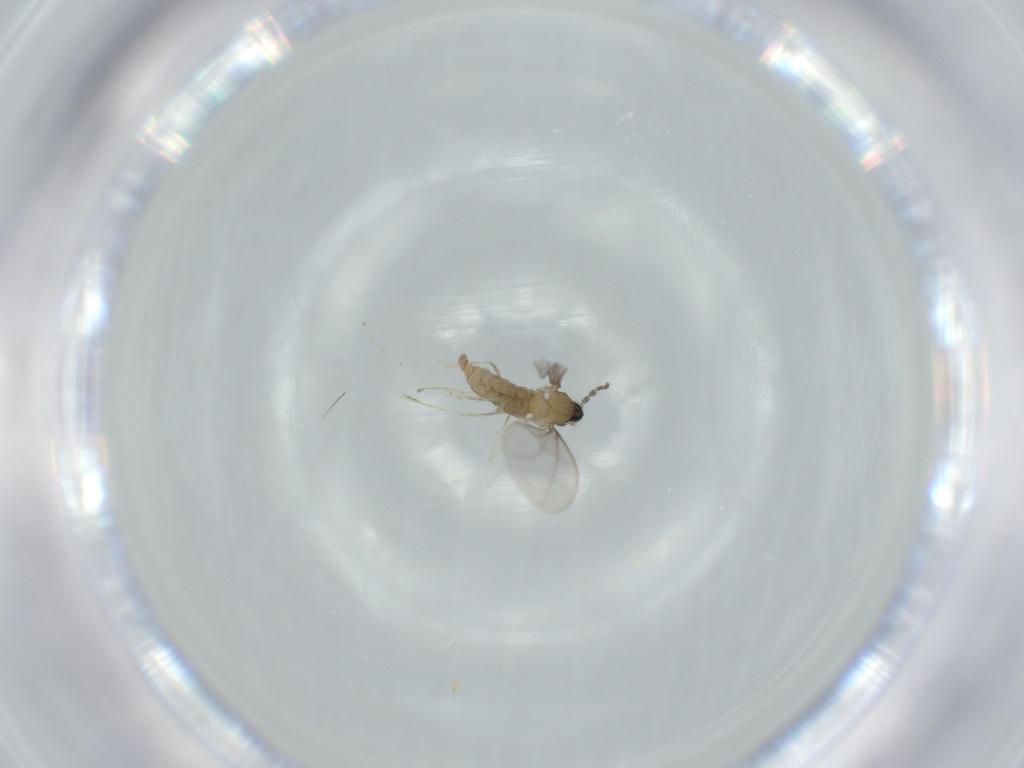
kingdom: Animalia
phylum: Arthropoda
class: Insecta
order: Diptera
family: Cecidomyiidae
